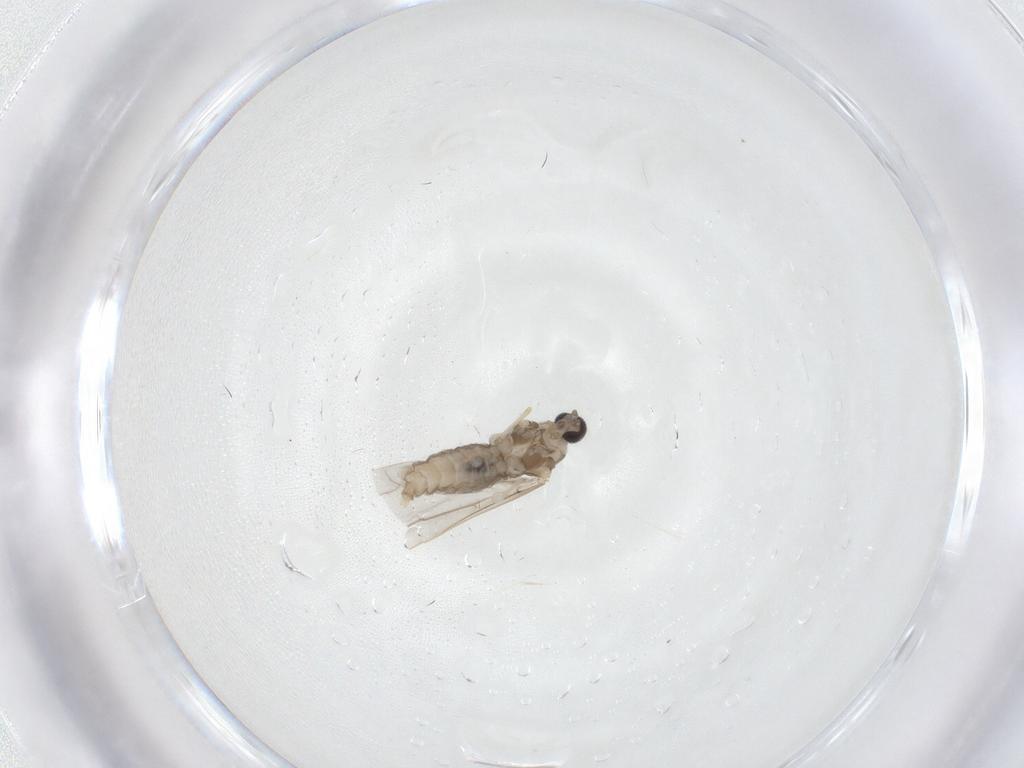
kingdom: Animalia
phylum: Arthropoda
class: Insecta
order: Diptera
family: Cecidomyiidae
